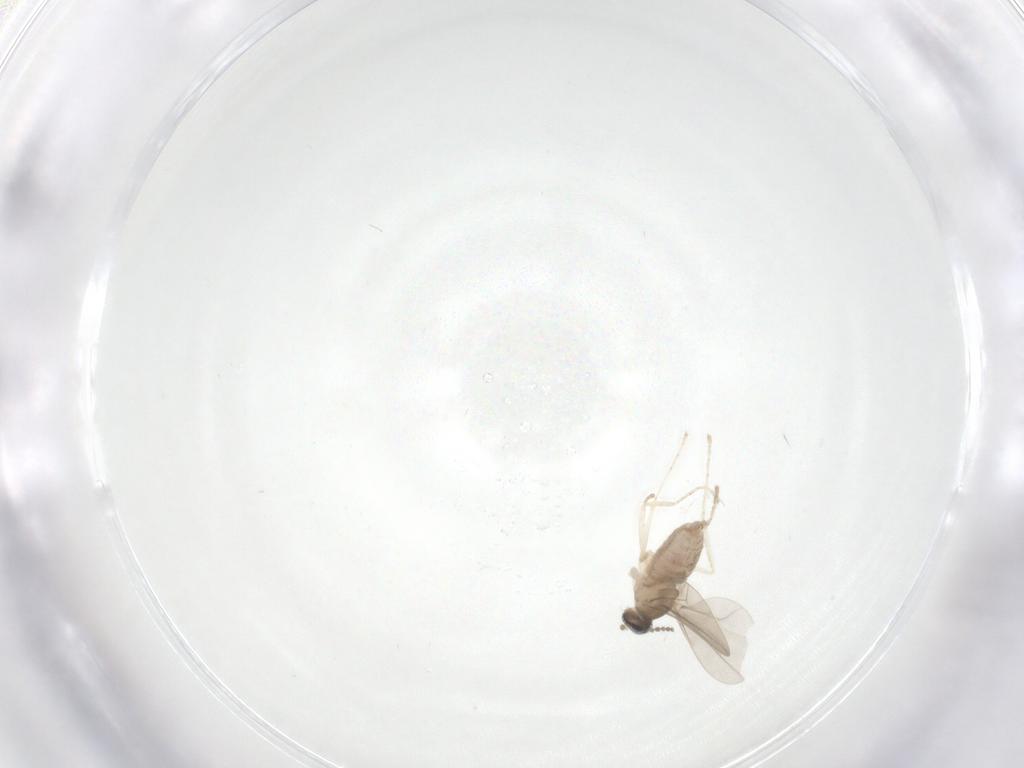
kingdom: Animalia
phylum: Arthropoda
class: Insecta
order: Diptera
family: Cecidomyiidae
